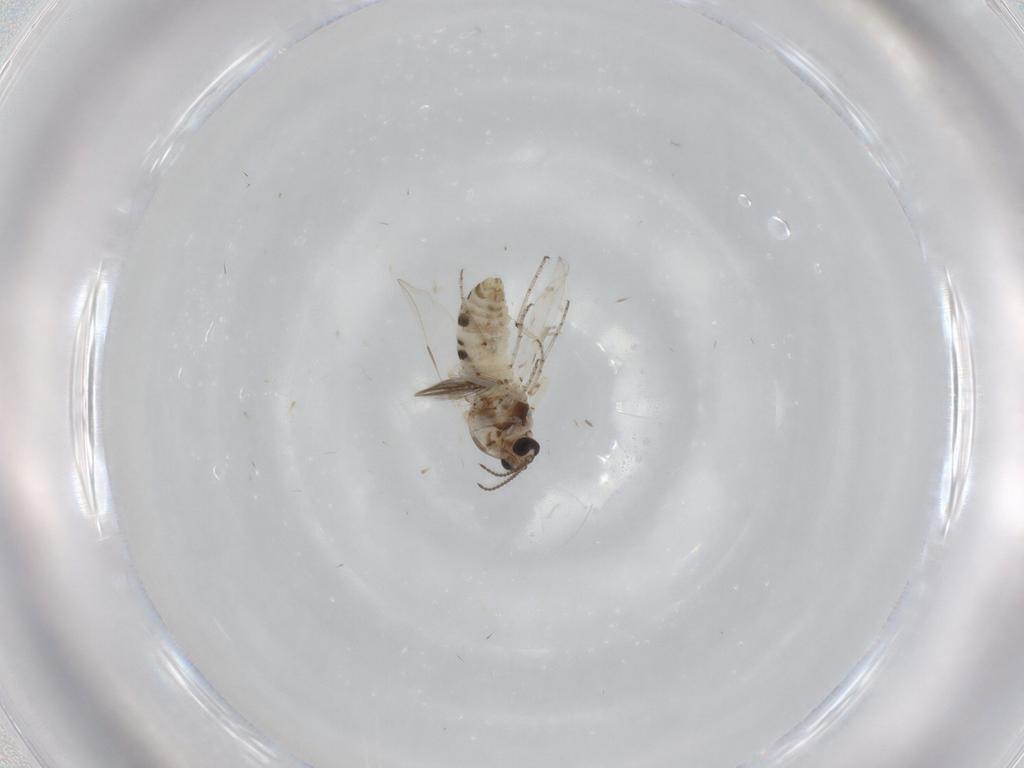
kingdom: Animalia
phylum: Arthropoda
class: Insecta
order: Diptera
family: Ceratopogonidae
